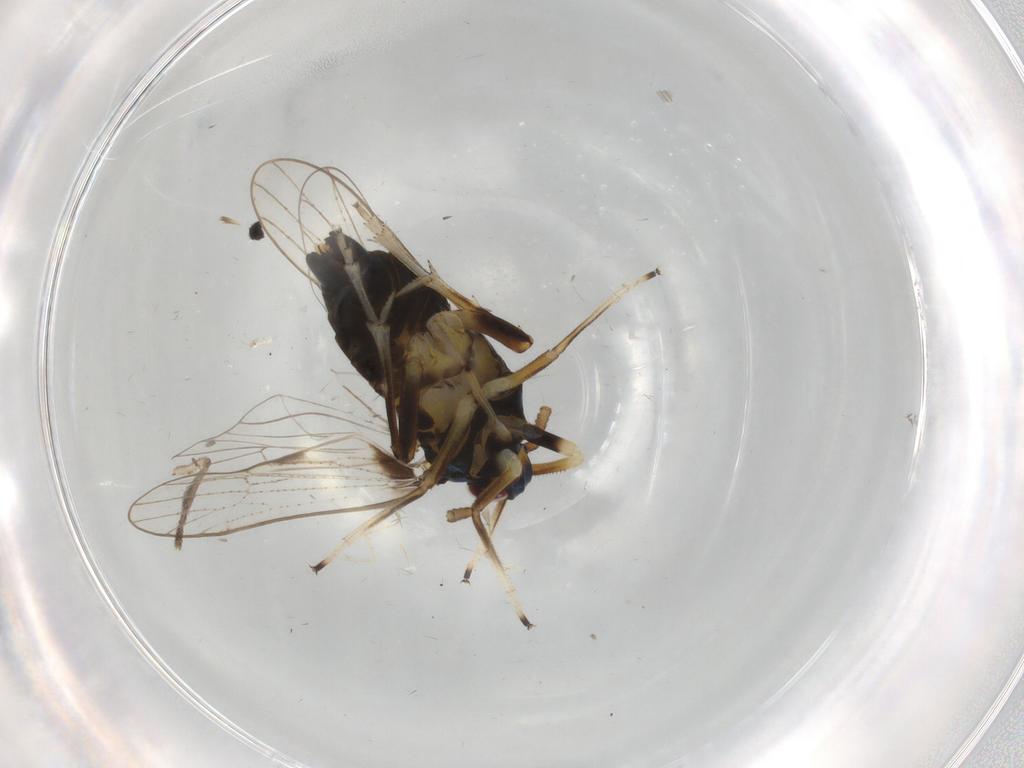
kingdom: Animalia
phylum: Arthropoda
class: Insecta
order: Hemiptera
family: Delphacidae
